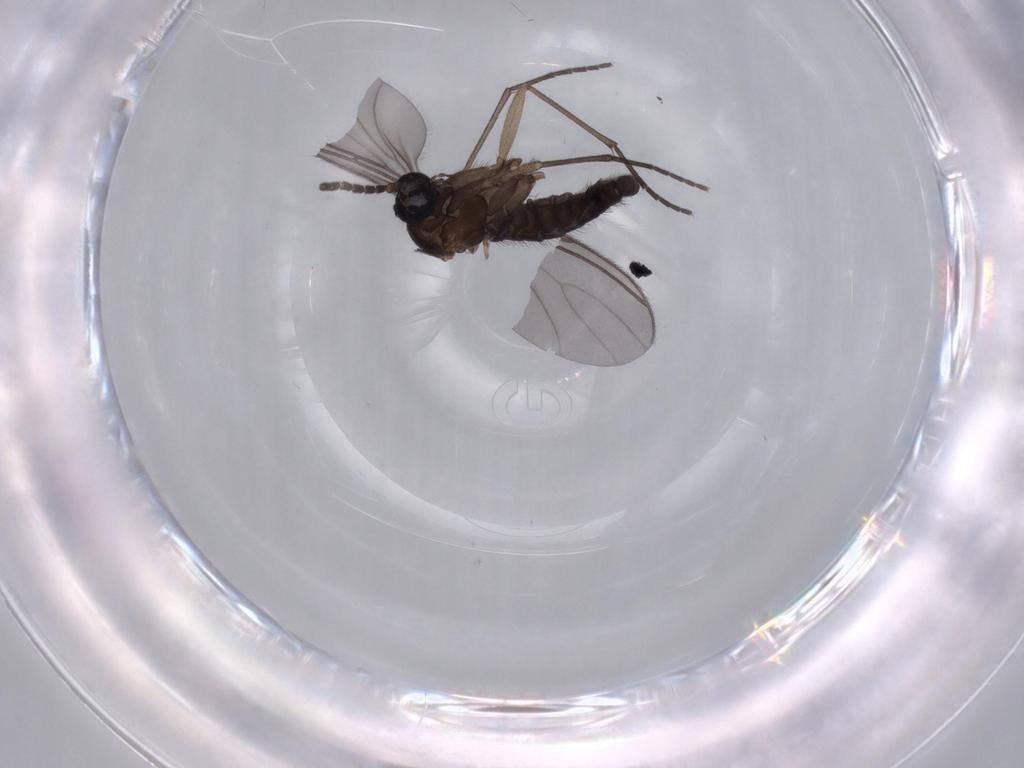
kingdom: Animalia
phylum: Arthropoda
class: Insecta
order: Diptera
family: Sciaridae
